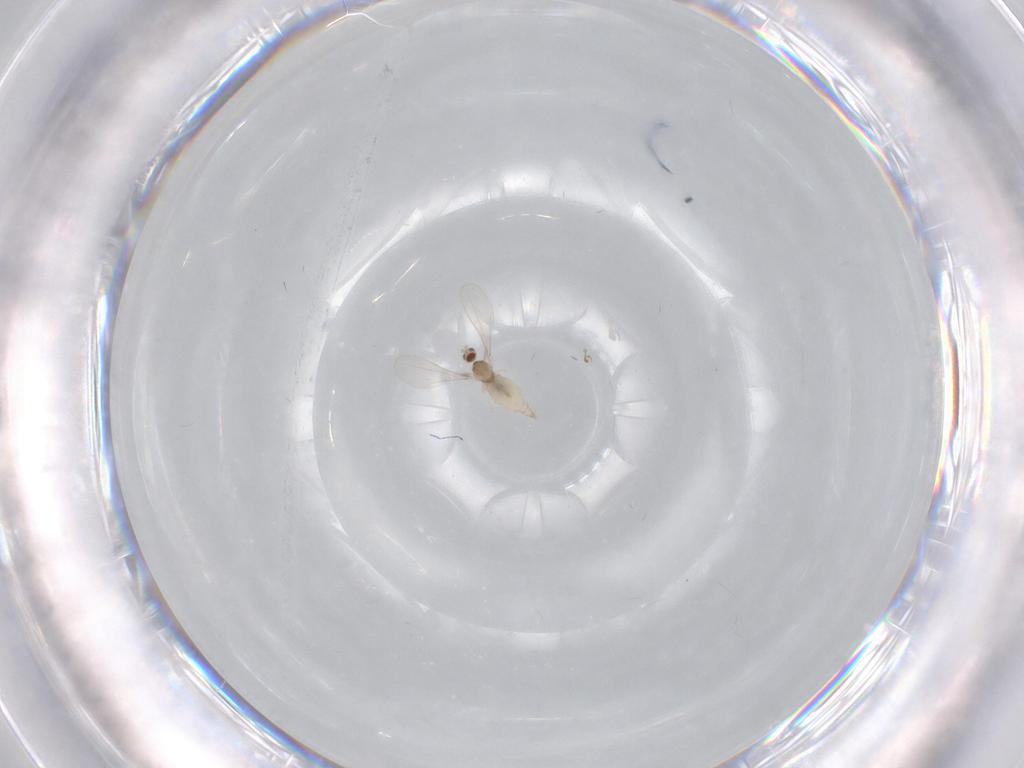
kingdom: Animalia
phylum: Arthropoda
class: Insecta
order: Diptera
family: Cecidomyiidae
